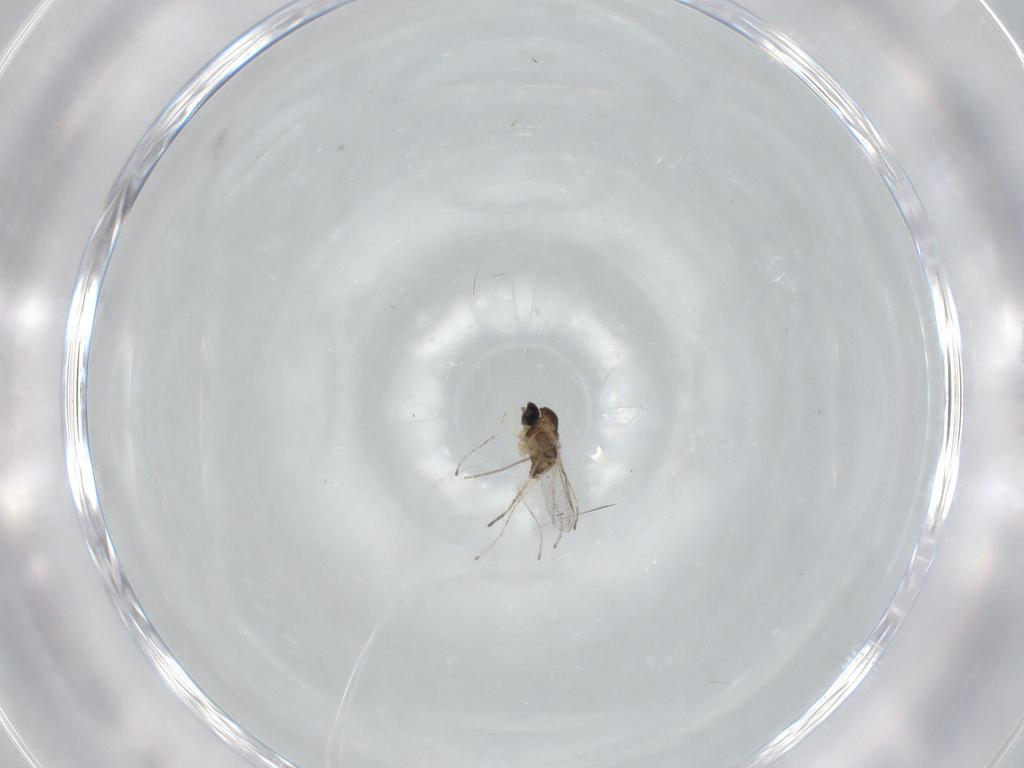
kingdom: Animalia
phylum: Arthropoda
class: Insecta
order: Diptera
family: Cecidomyiidae
